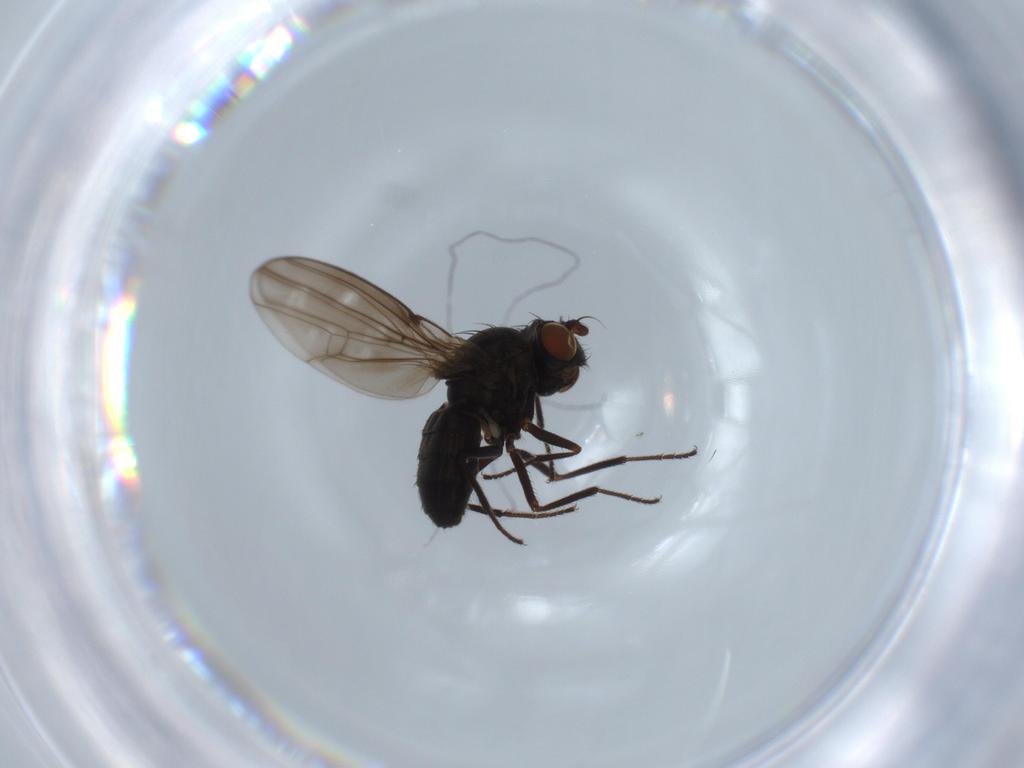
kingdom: Animalia
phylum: Arthropoda
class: Insecta
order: Diptera
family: Ephydridae
